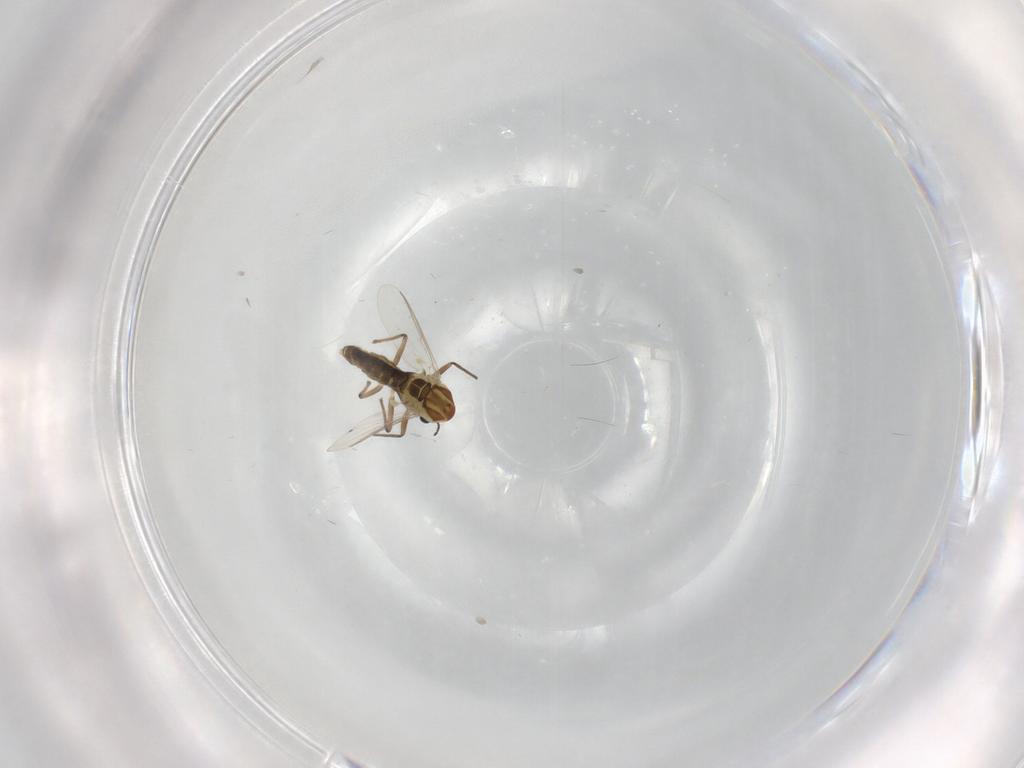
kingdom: Animalia
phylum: Arthropoda
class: Insecta
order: Diptera
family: Chironomidae
